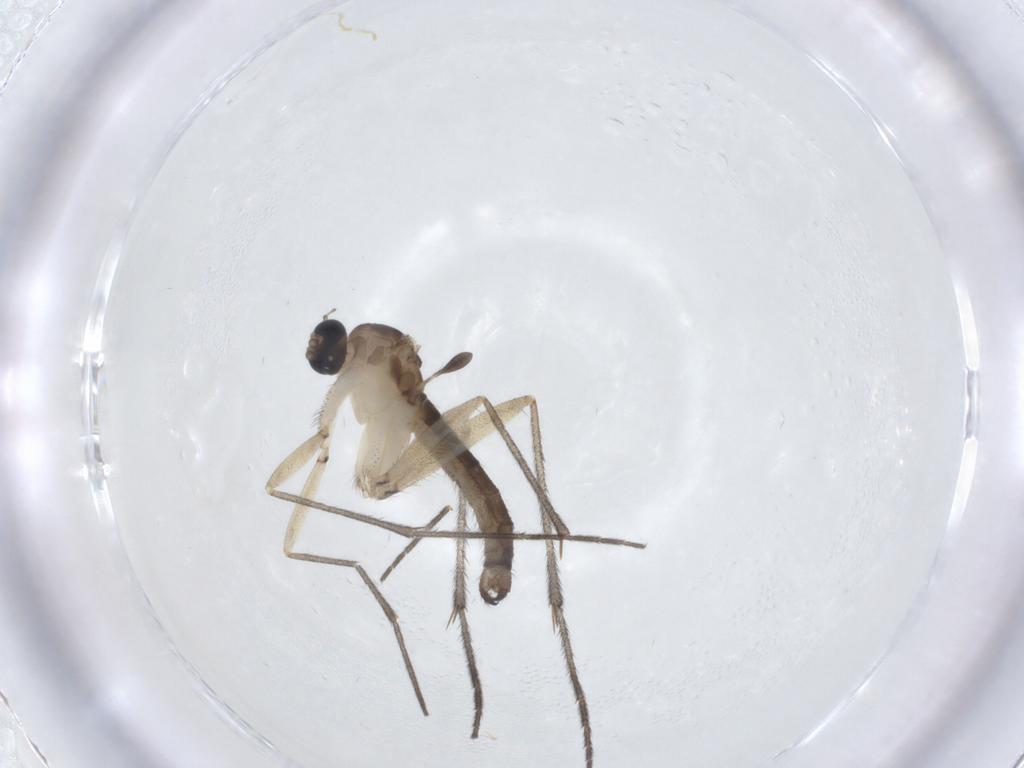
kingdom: Animalia
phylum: Arthropoda
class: Insecta
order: Diptera
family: Sciaridae
